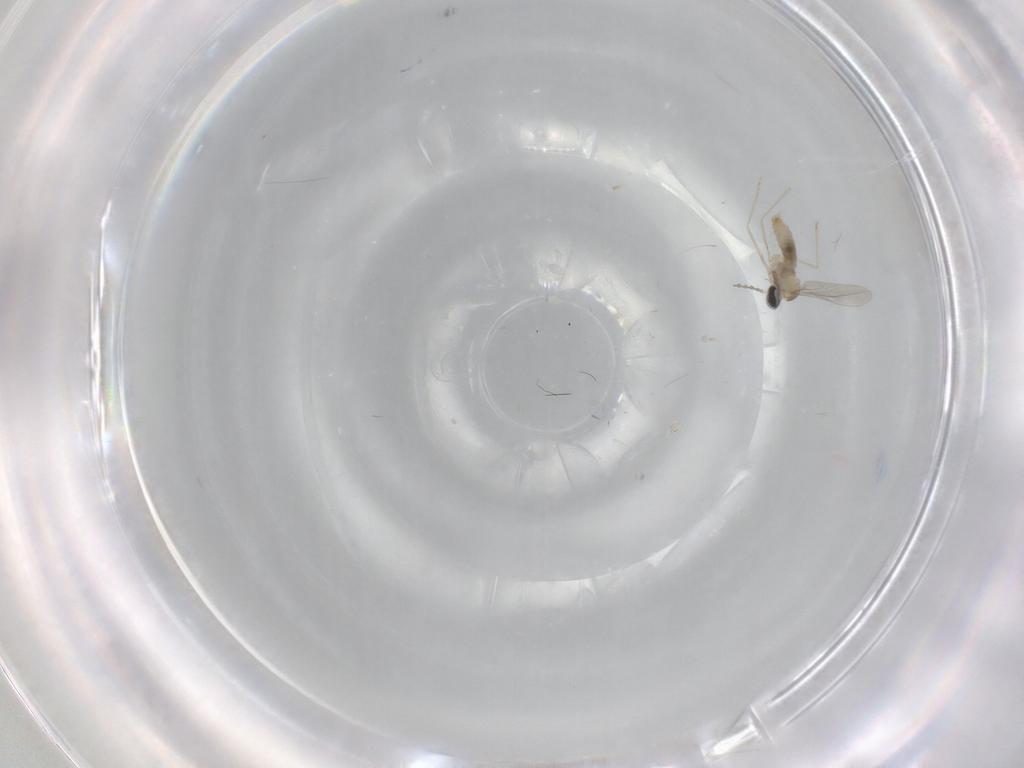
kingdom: Animalia
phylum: Arthropoda
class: Insecta
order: Diptera
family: Cecidomyiidae
